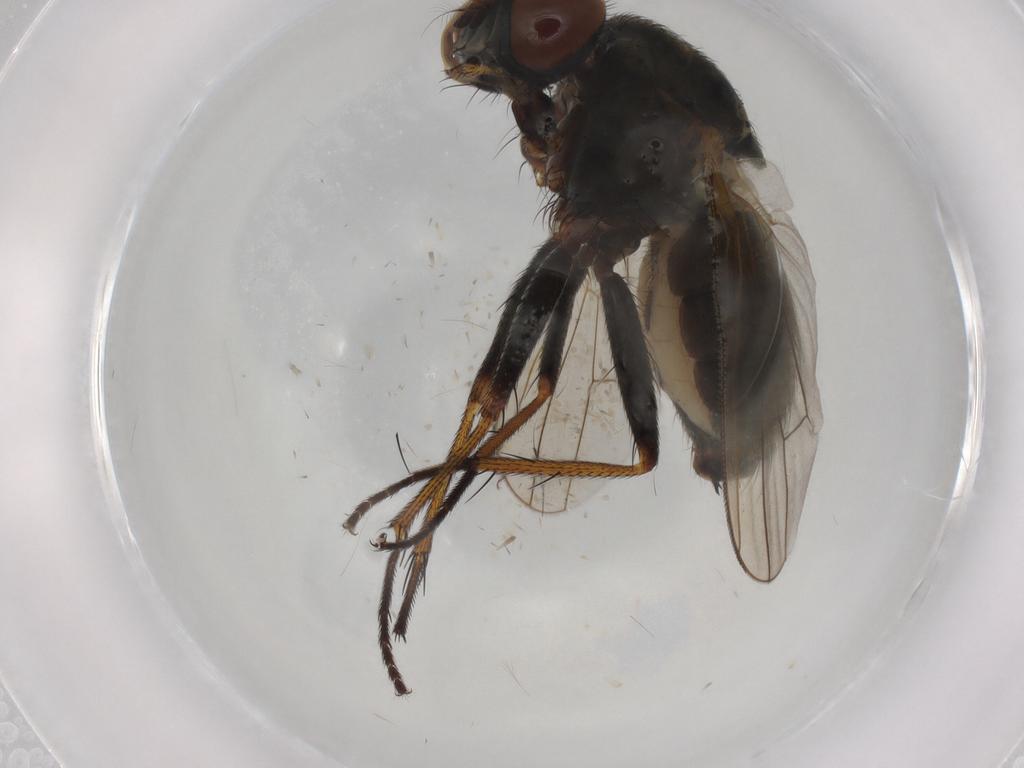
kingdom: Animalia
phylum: Arthropoda
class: Insecta
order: Diptera
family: Muscidae
